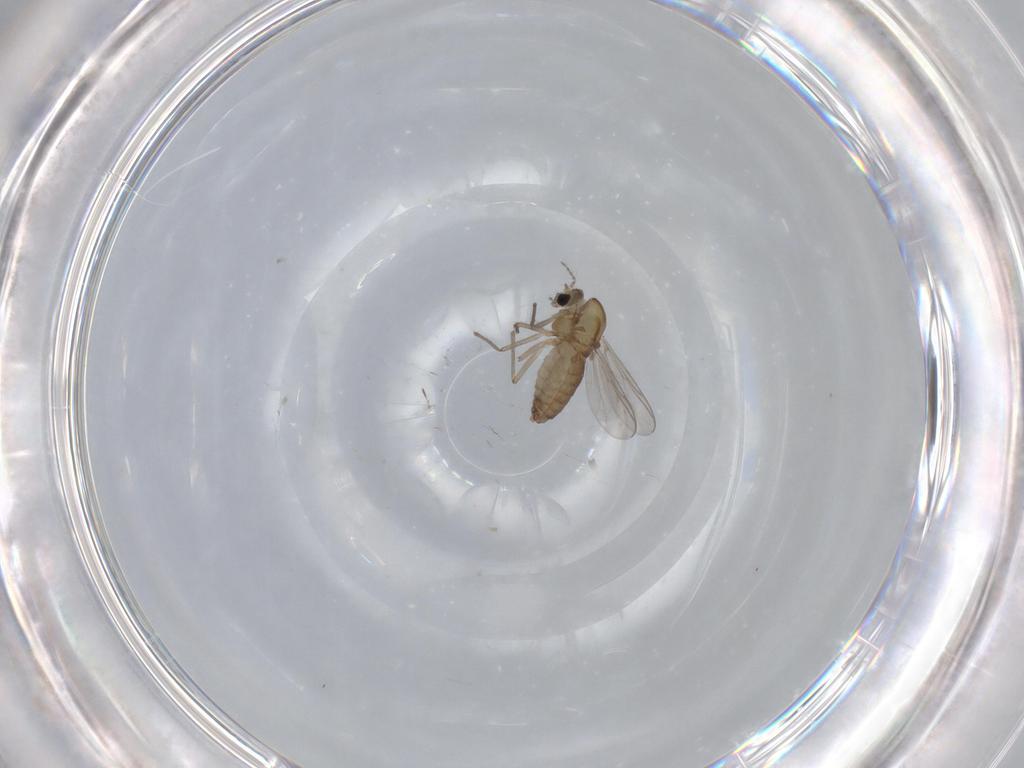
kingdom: Animalia
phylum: Arthropoda
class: Insecta
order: Diptera
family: Chironomidae
